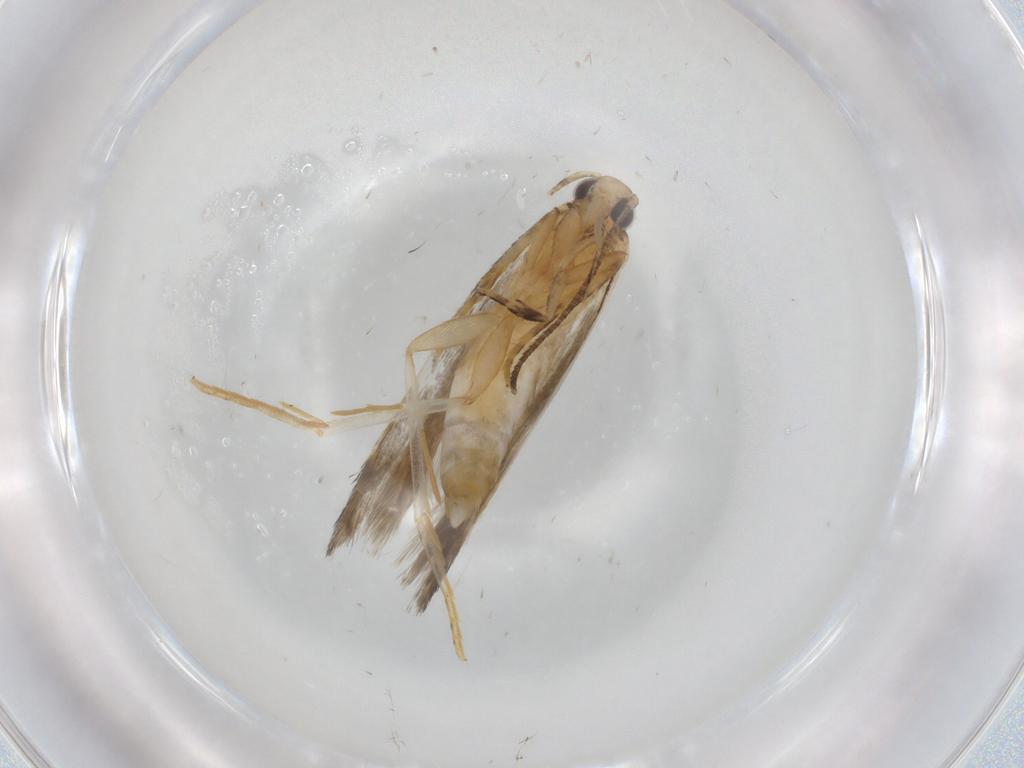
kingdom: Animalia
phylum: Arthropoda
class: Insecta
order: Lepidoptera
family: Autostichidae
